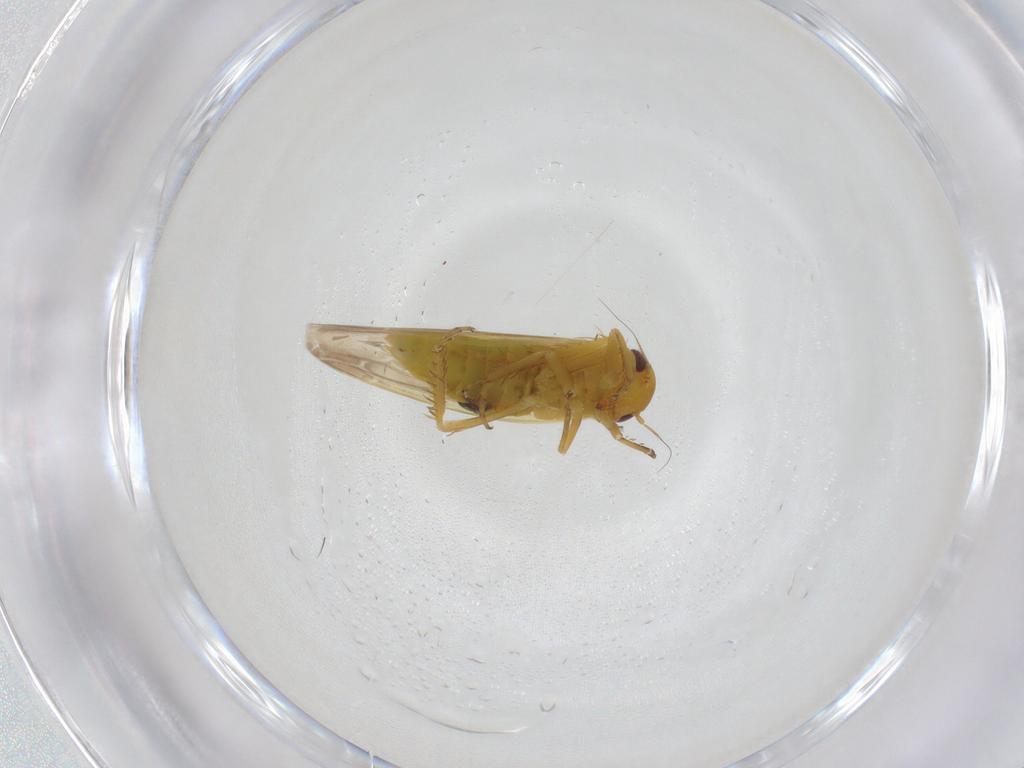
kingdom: Animalia
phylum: Arthropoda
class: Insecta
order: Hemiptera
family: Cicadellidae
